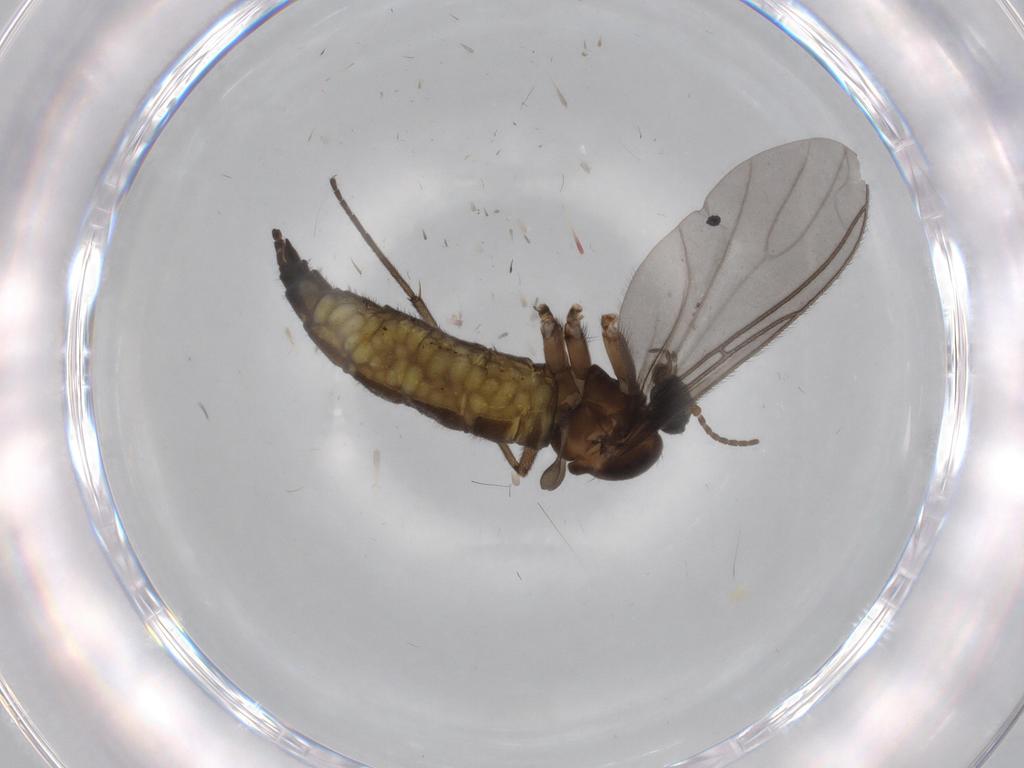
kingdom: Animalia
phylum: Arthropoda
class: Insecta
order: Diptera
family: Sciaridae
